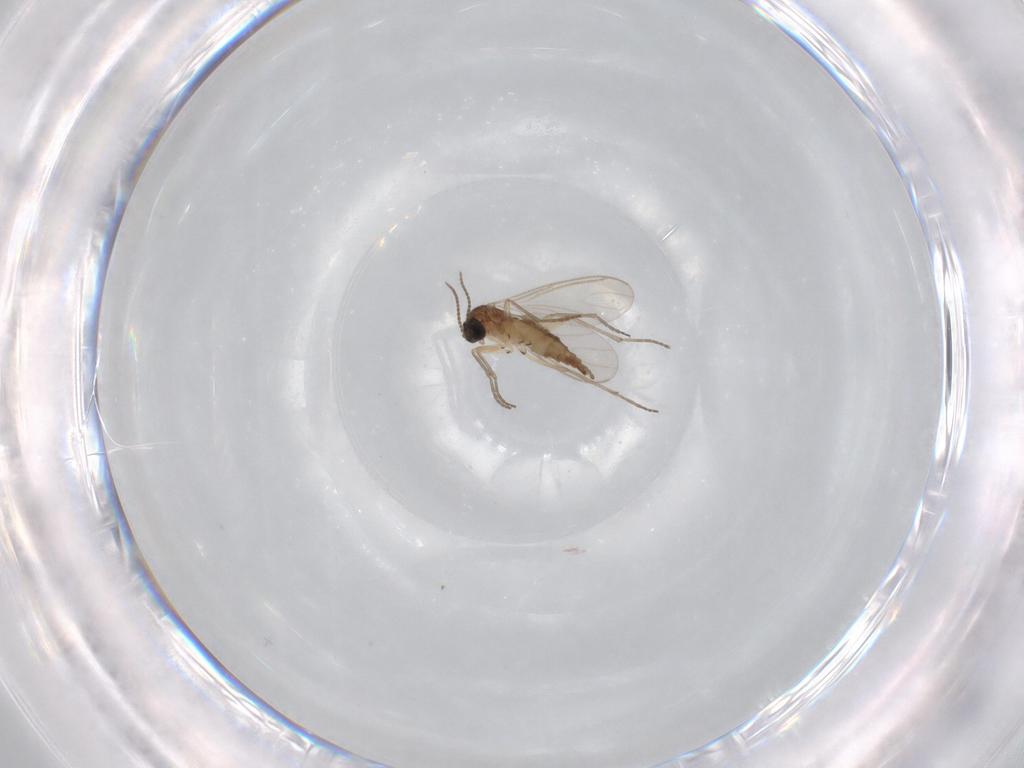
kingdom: Animalia
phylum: Arthropoda
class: Insecta
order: Diptera
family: Sciaridae
